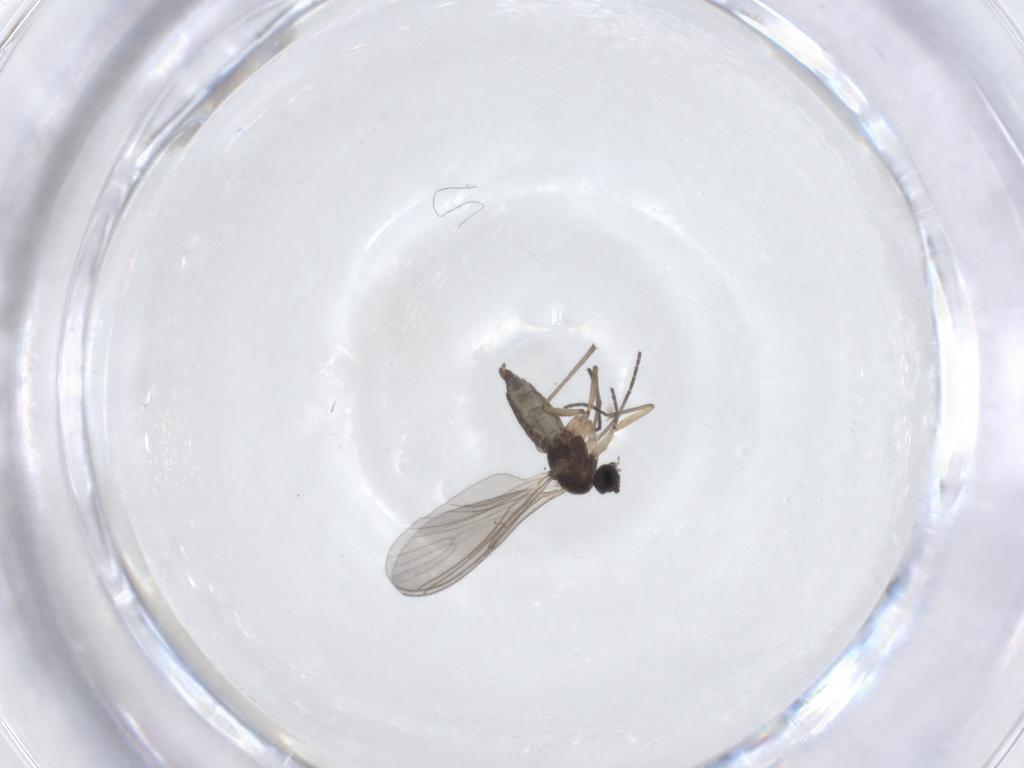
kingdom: Animalia
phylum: Arthropoda
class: Insecta
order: Diptera
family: Sciaridae
